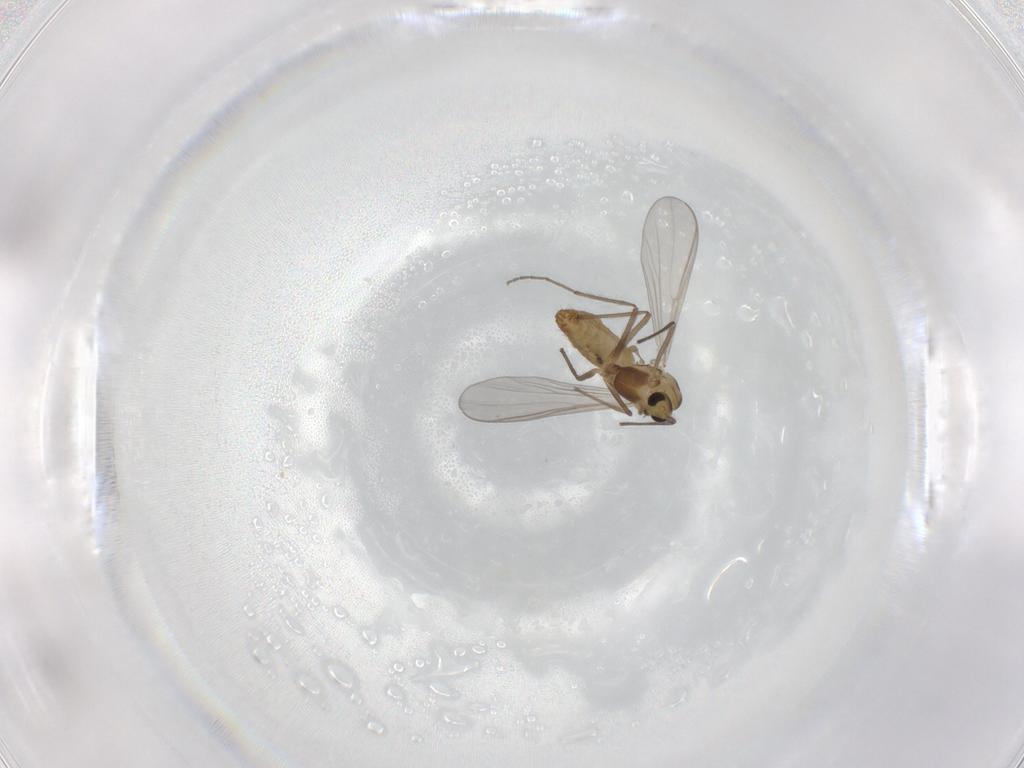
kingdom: Animalia
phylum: Arthropoda
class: Insecta
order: Diptera
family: Chironomidae
